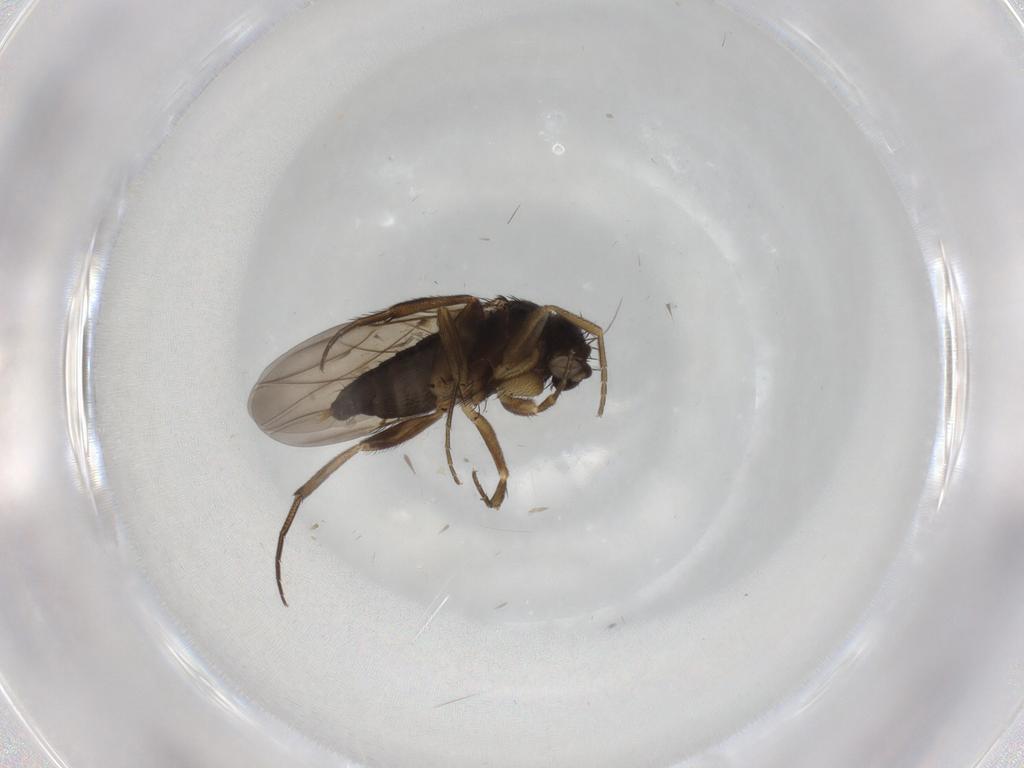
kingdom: Animalia
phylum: Arthropoda
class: Insecta
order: Diptera
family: Phoridae
